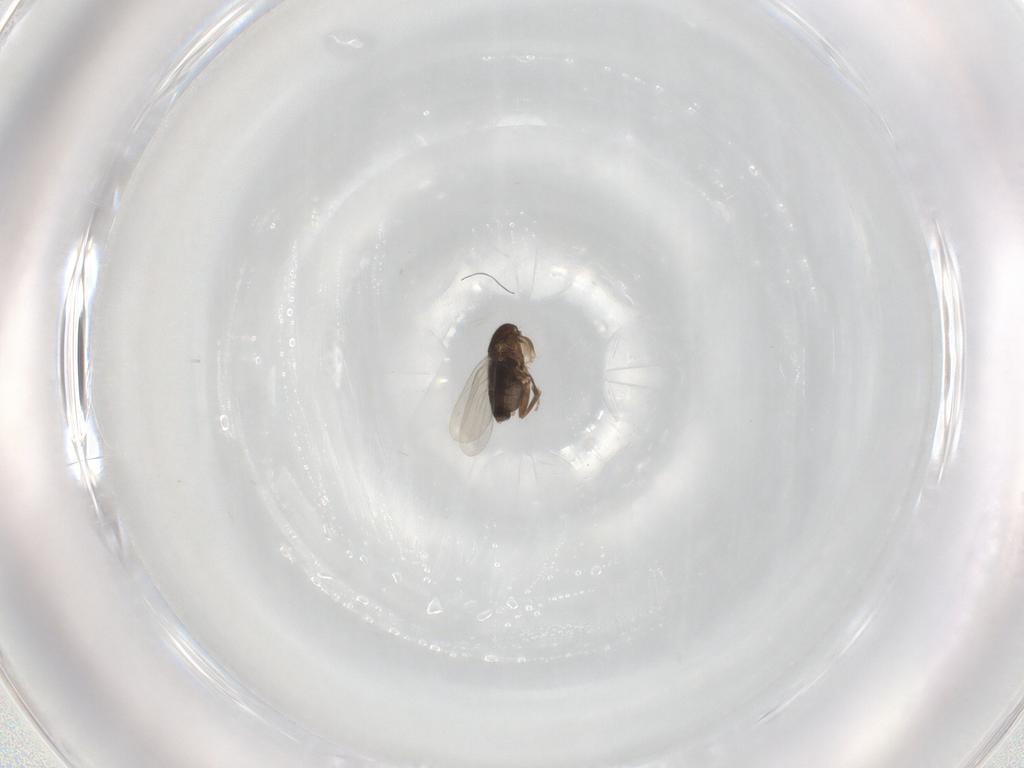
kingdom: Animalia
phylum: Arthropoda
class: Insecta
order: Diptera
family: Phoridae
